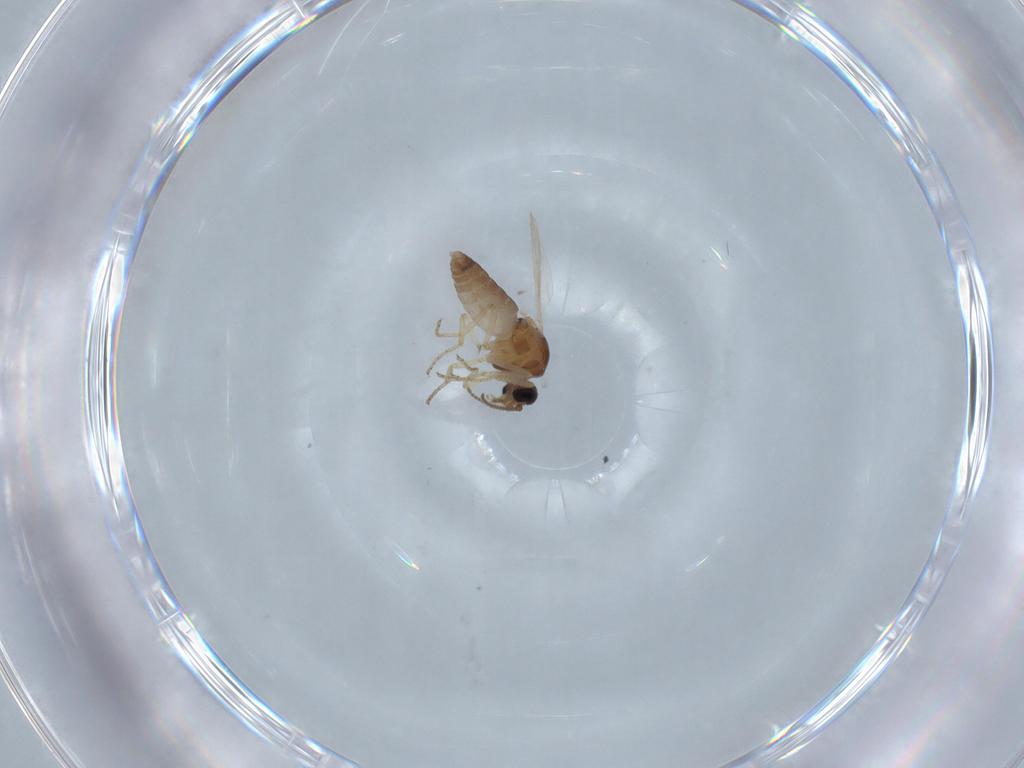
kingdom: Animalia
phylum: Arthropoda
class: Insecta
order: Diptera
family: Ceratopogonidae
